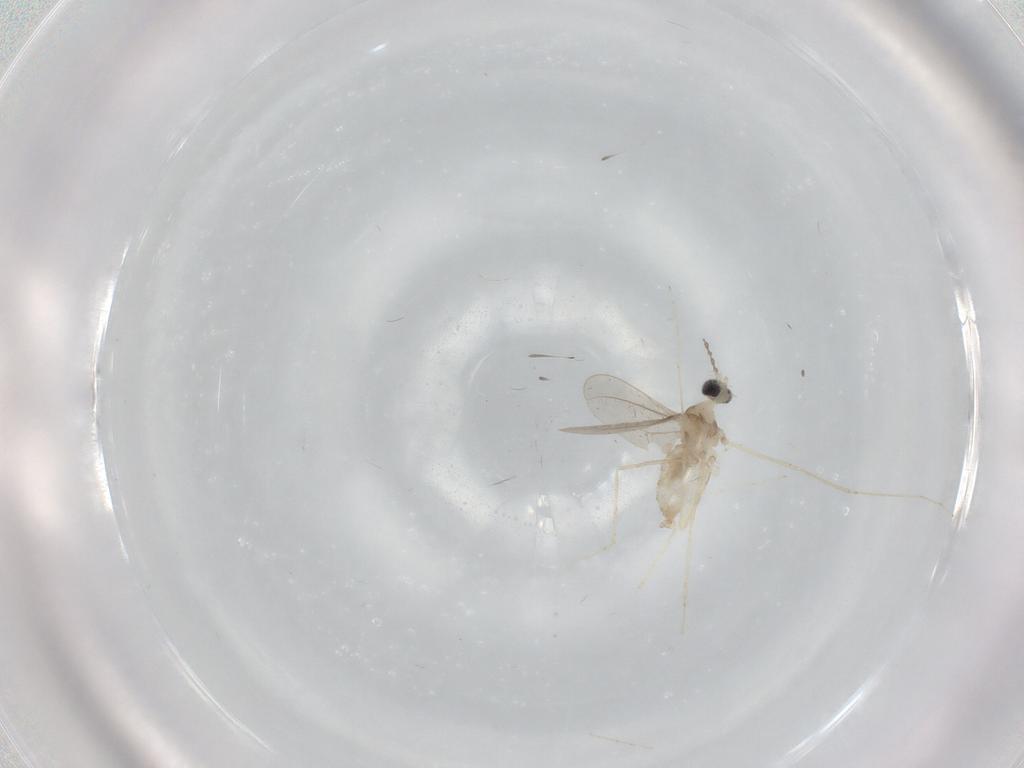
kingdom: Animalia
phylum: Arthropoda
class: Insecta
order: Diptera
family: Cecidomyiidae
